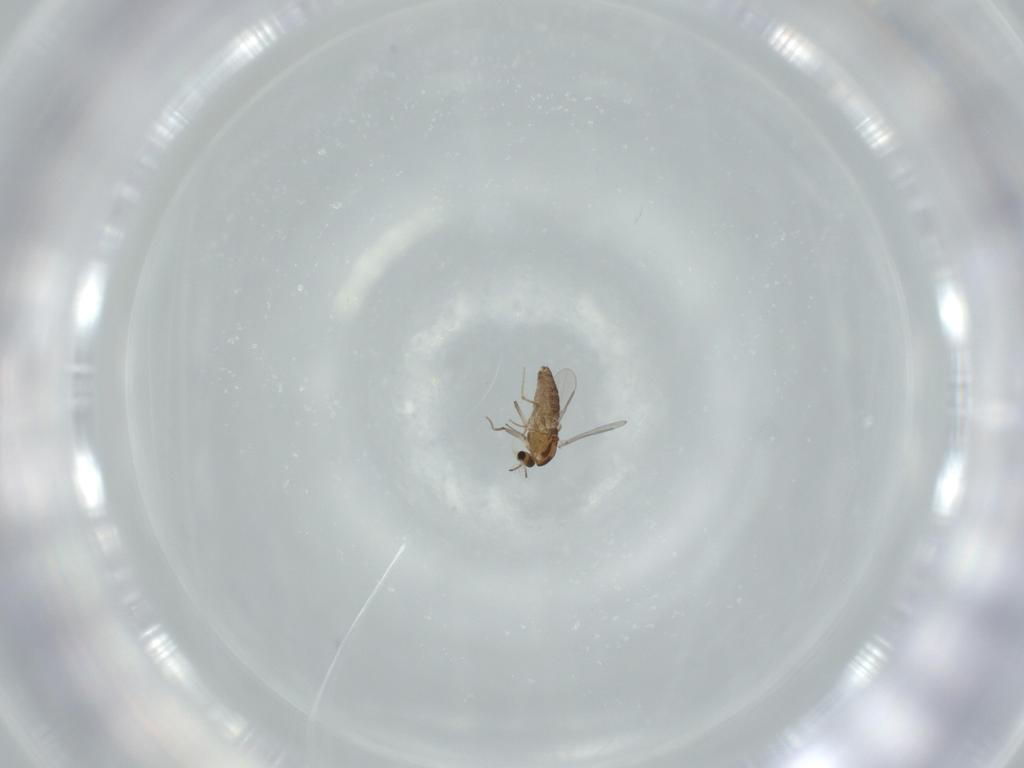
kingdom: Animalia
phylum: Arthropoda
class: Insecta
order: Diptera
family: Chironomidae
